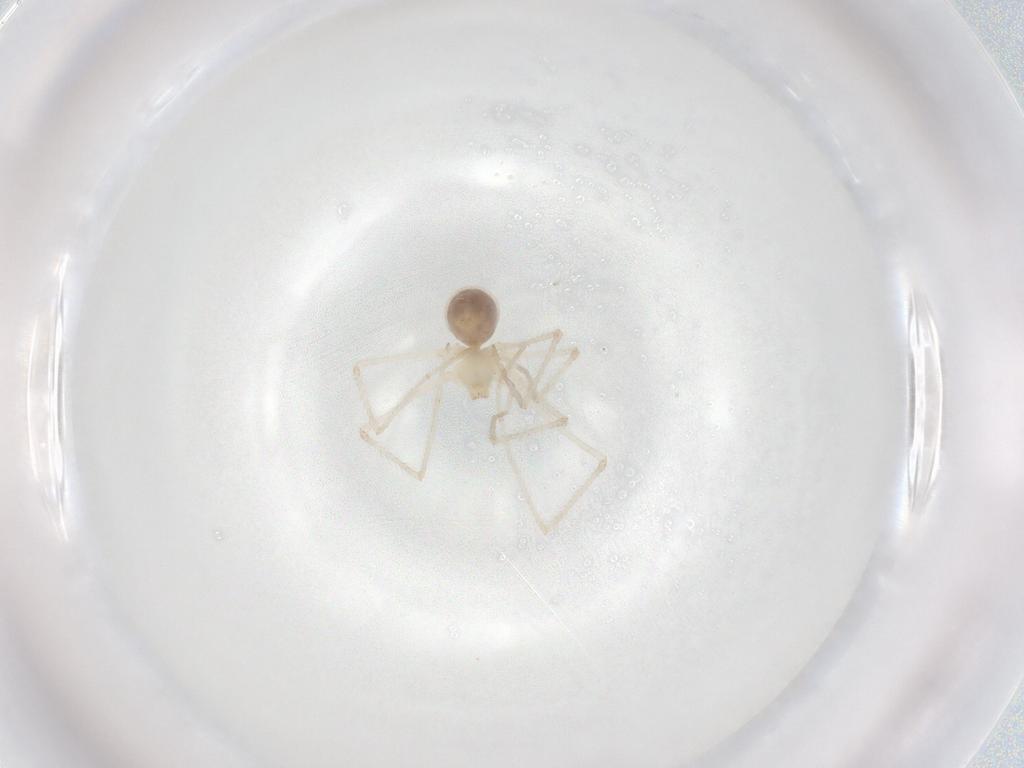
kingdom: Animalia
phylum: Arthropoda
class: Arachnida
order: Araneae
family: Pholcidae
